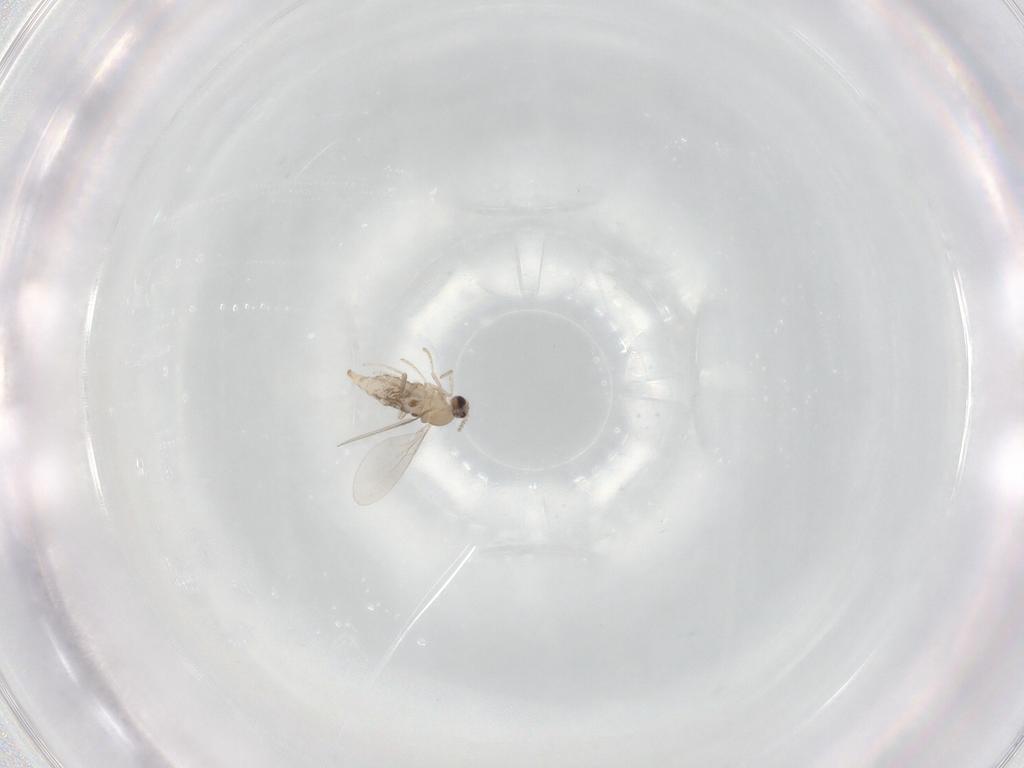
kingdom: Animalia
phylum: Arthropoda
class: Insecta
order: Diptera
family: Cecidomyiidae
